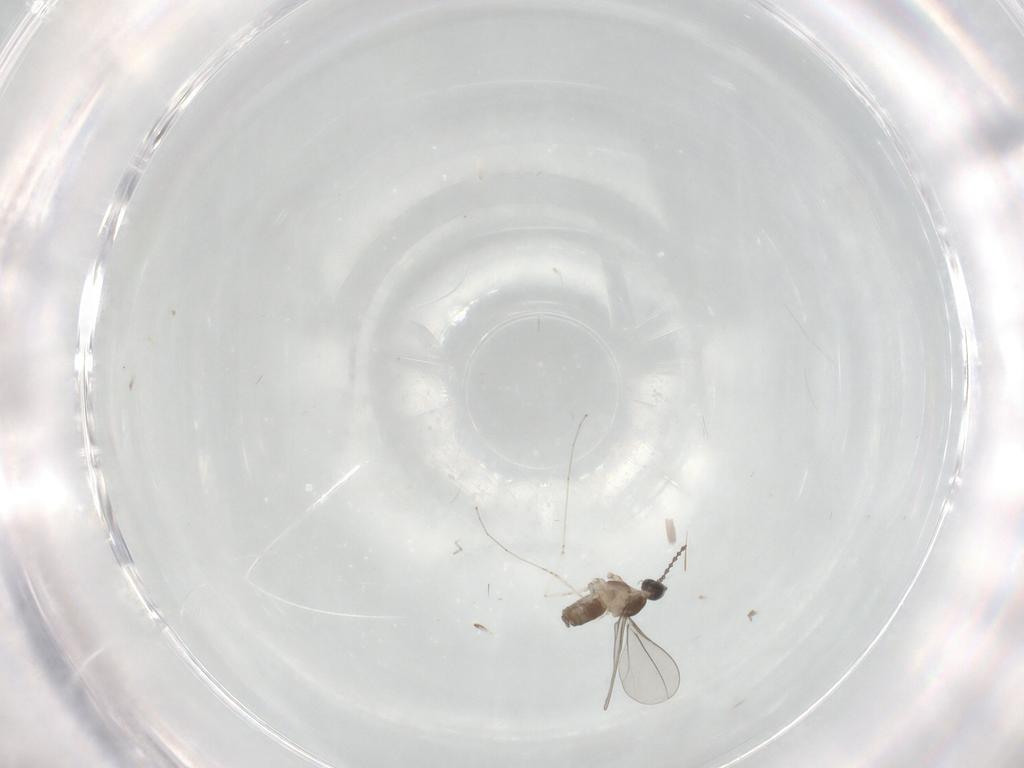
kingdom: Animalia
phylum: Arthropoda
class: Insecta
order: Diptera
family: Cecidomyiidae
